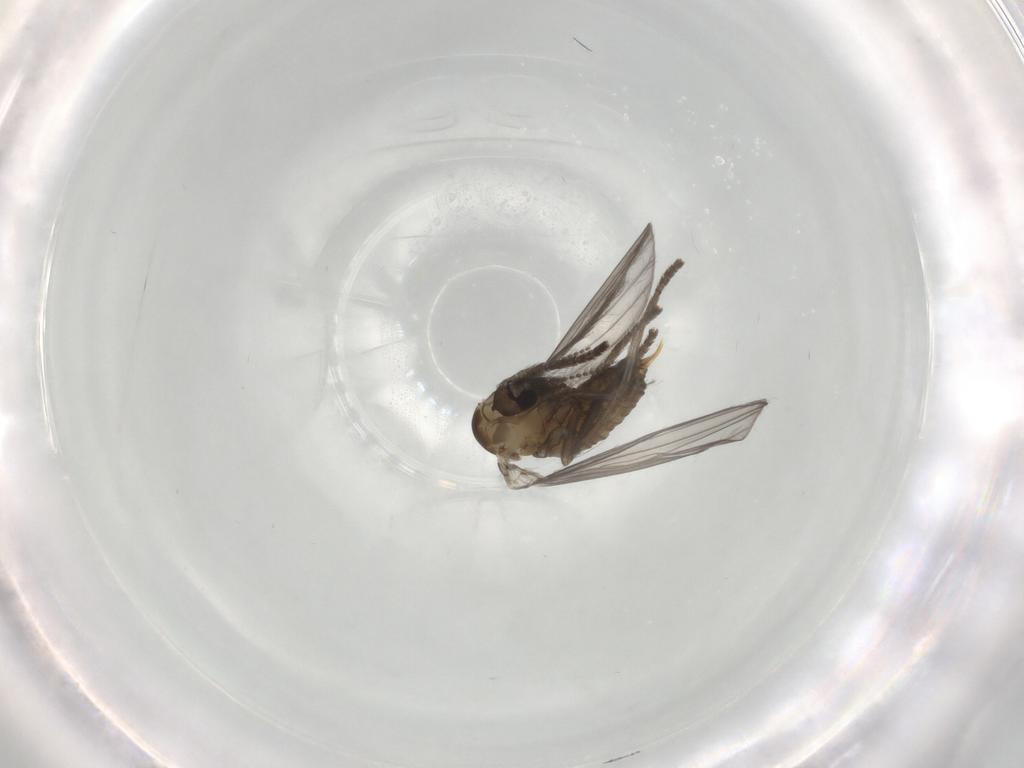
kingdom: Animalia
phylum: Arthropoda
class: Insecta
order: Diptera
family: Psychodidae
